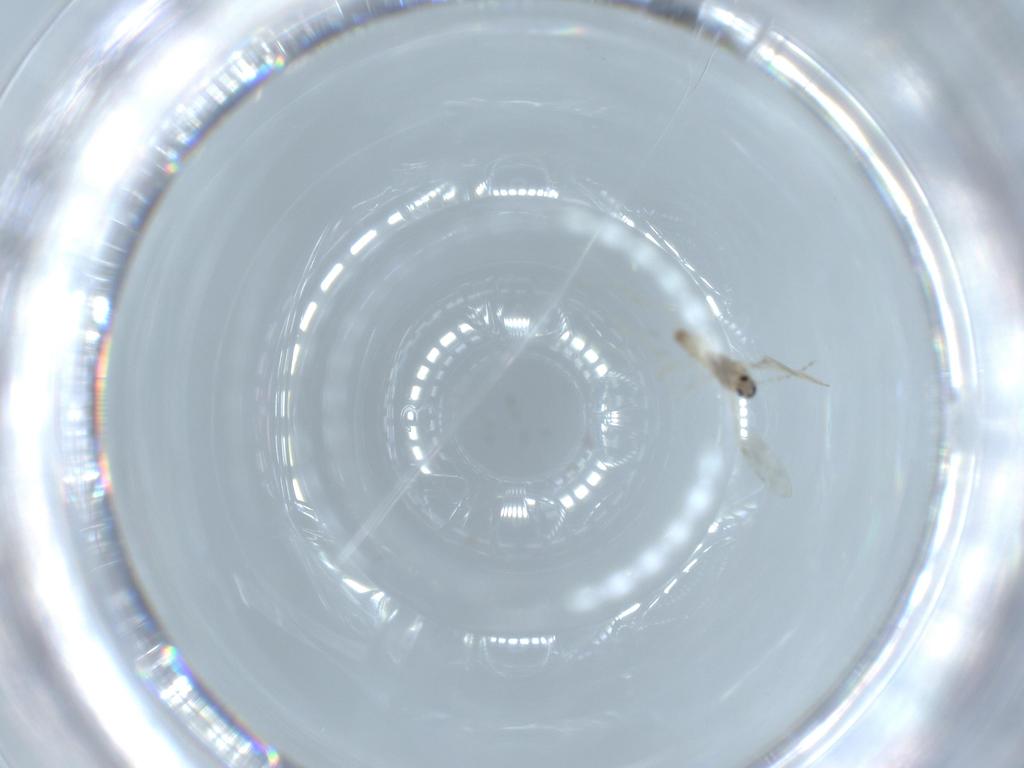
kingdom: Animalia
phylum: Arthropoda
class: Insecta
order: Diptera
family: Cecidomyiidae
